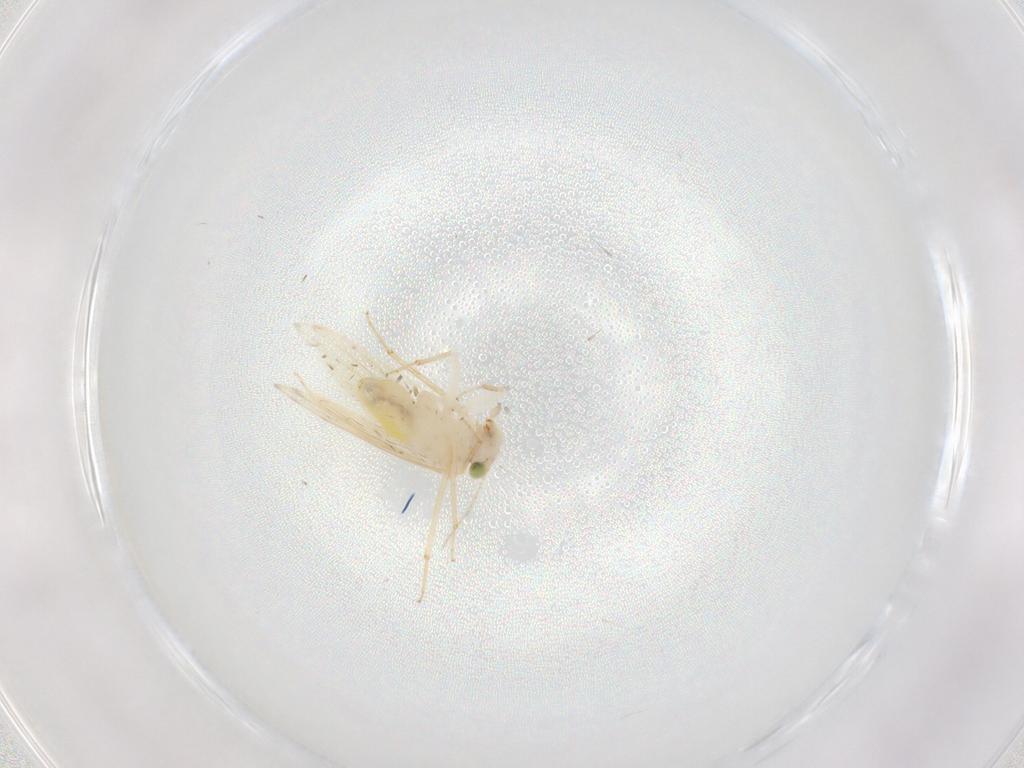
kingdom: Animalia
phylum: Arthropoda
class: Insecta
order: Psocodea
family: Lepidopsocidae
